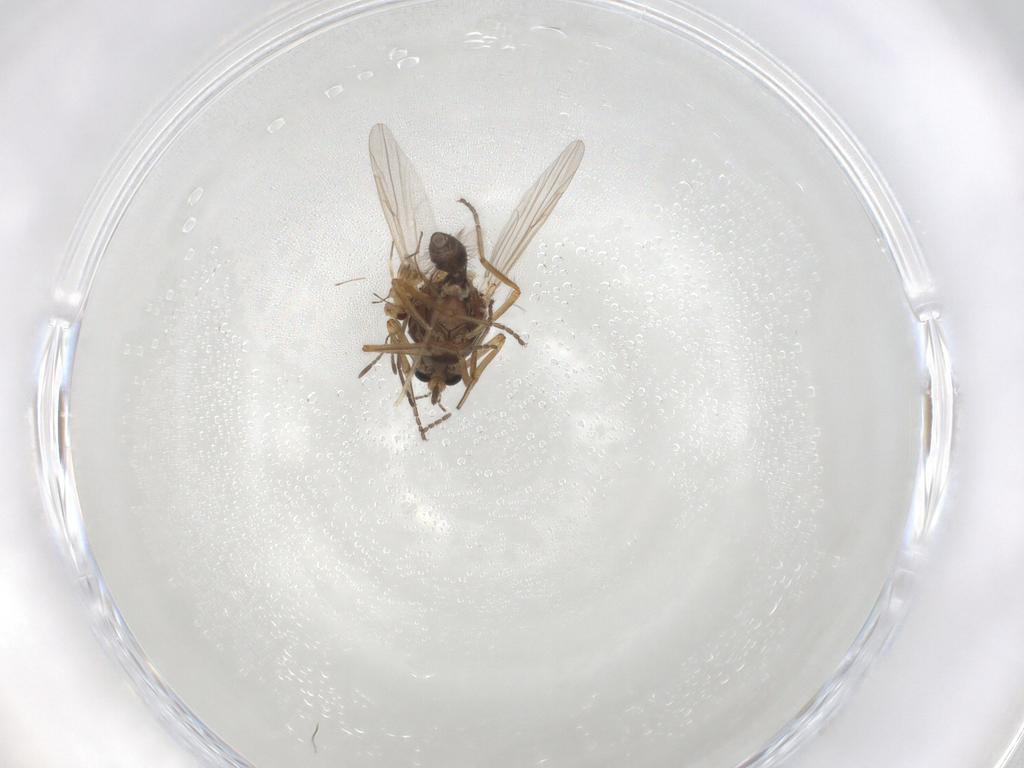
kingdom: Animalia
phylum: Arthropoda
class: Insecta
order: Diptera
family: Ceratopogonidae
